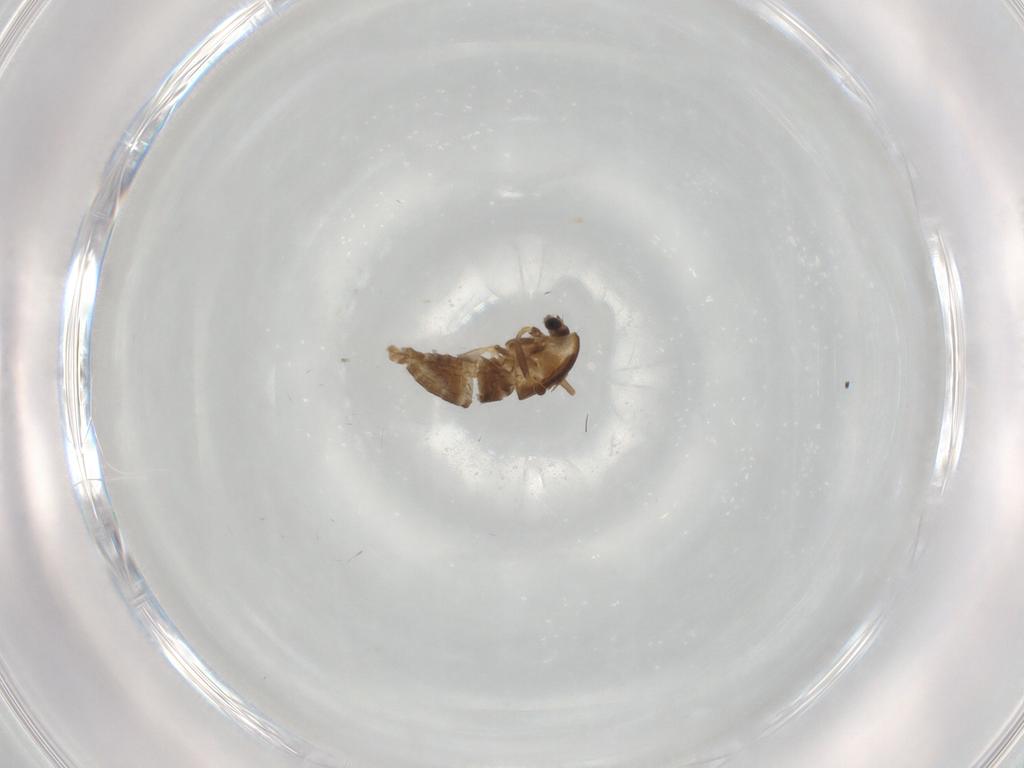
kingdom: Animalia
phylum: Arthropoda
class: Insecta
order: Diptera
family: Chironomidae
